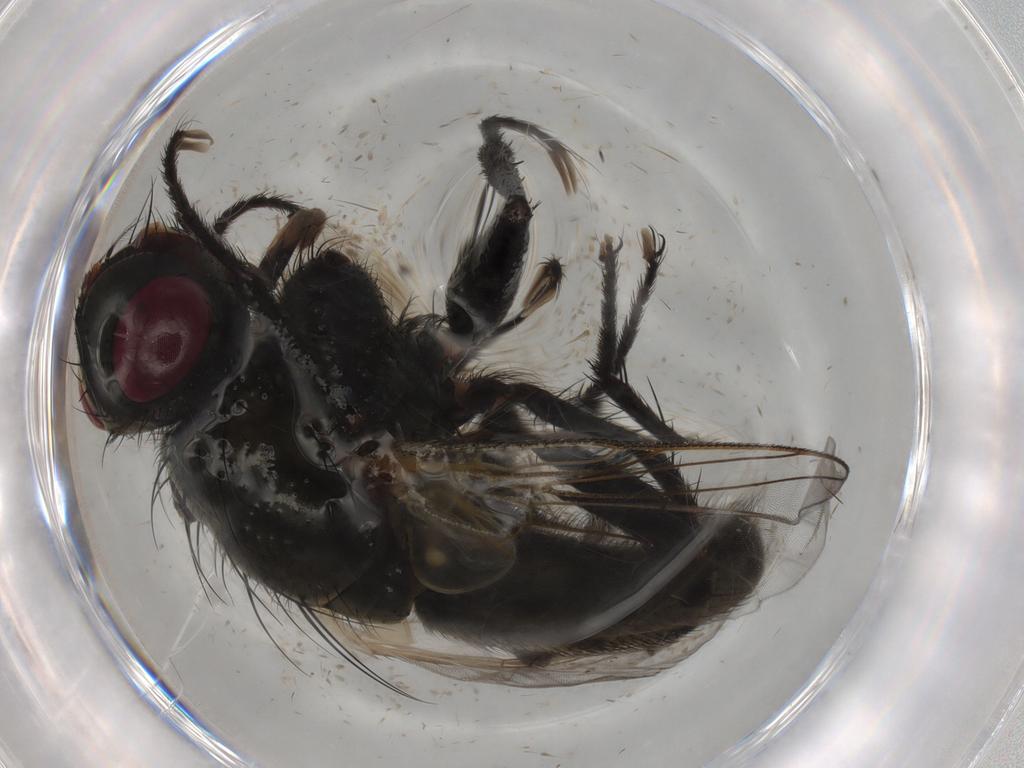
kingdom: Animalia
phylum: Arthropoda
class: Insecta
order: Diptera
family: Sarcophagidae
